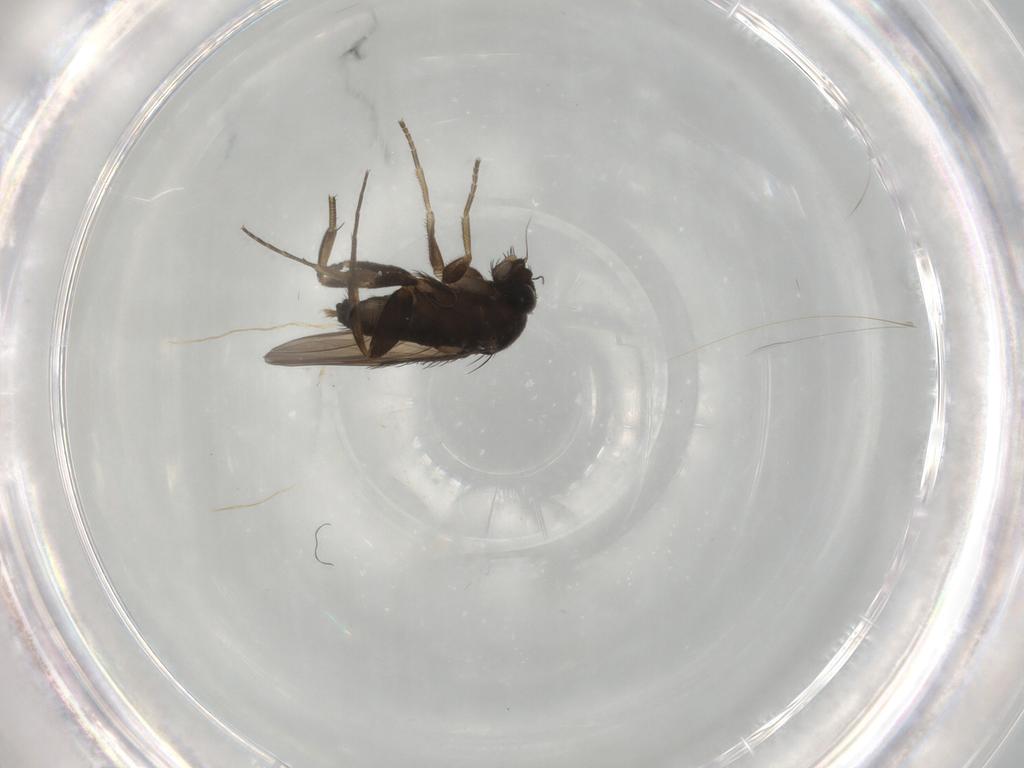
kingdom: Animalia
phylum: Arthropoda
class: Insecta
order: Diptera
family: Phoridae
